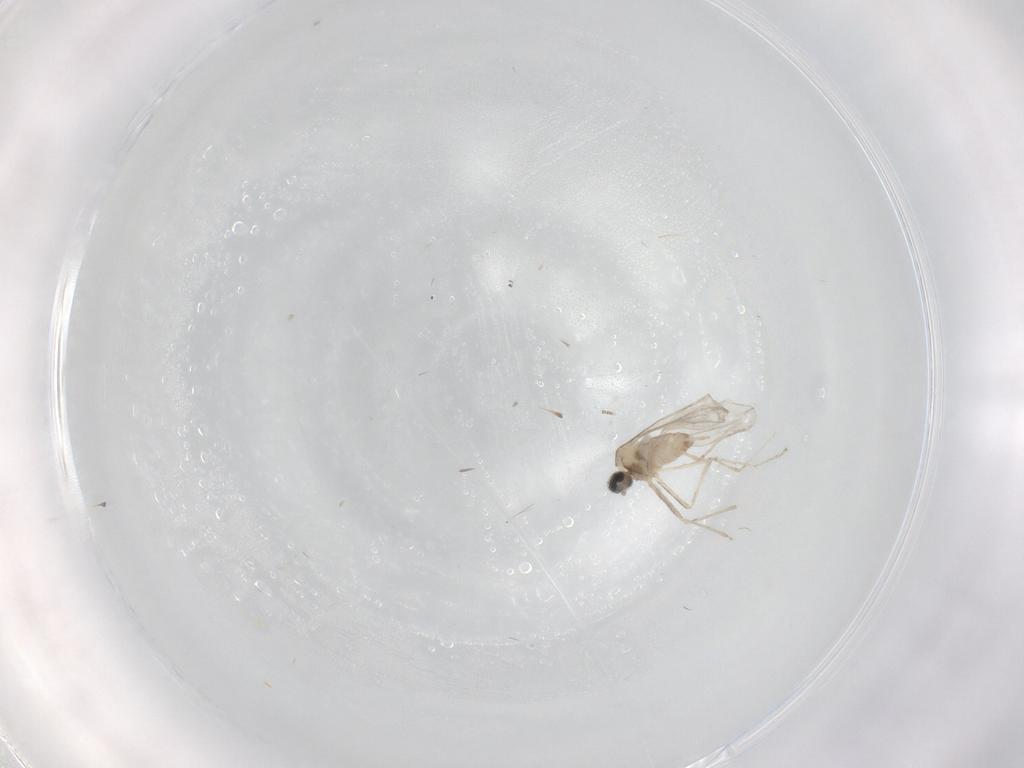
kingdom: Animalia
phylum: Arthropoda
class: Insecta
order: Diptera
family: Cecidomyiidae
